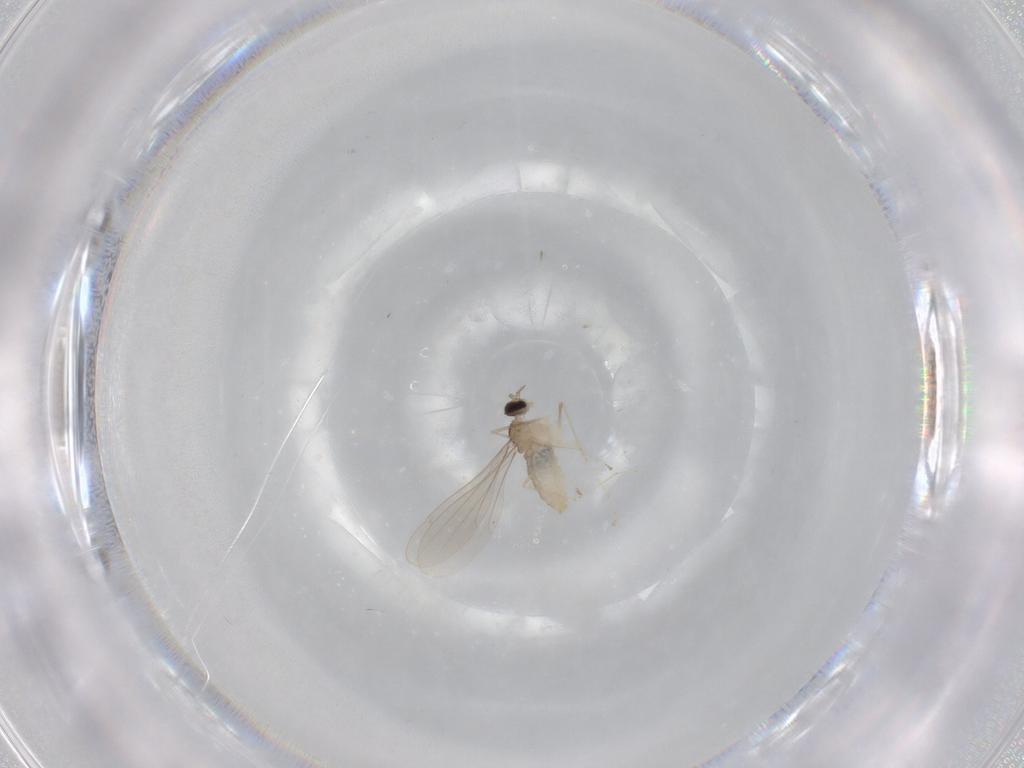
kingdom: Animalia
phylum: Arthropoda
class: Insecta
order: Diptera
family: Cecidomyiidae
